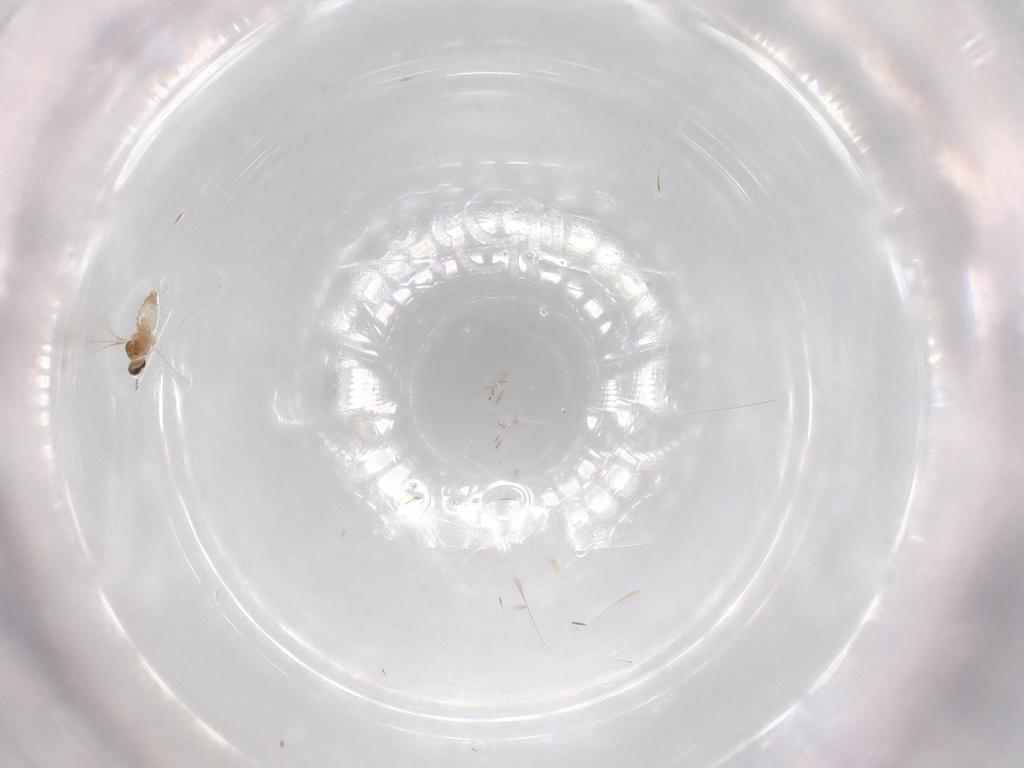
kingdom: Animalia
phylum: Arthropoda
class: Insecta
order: Diptera
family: Cecidomyiidae
